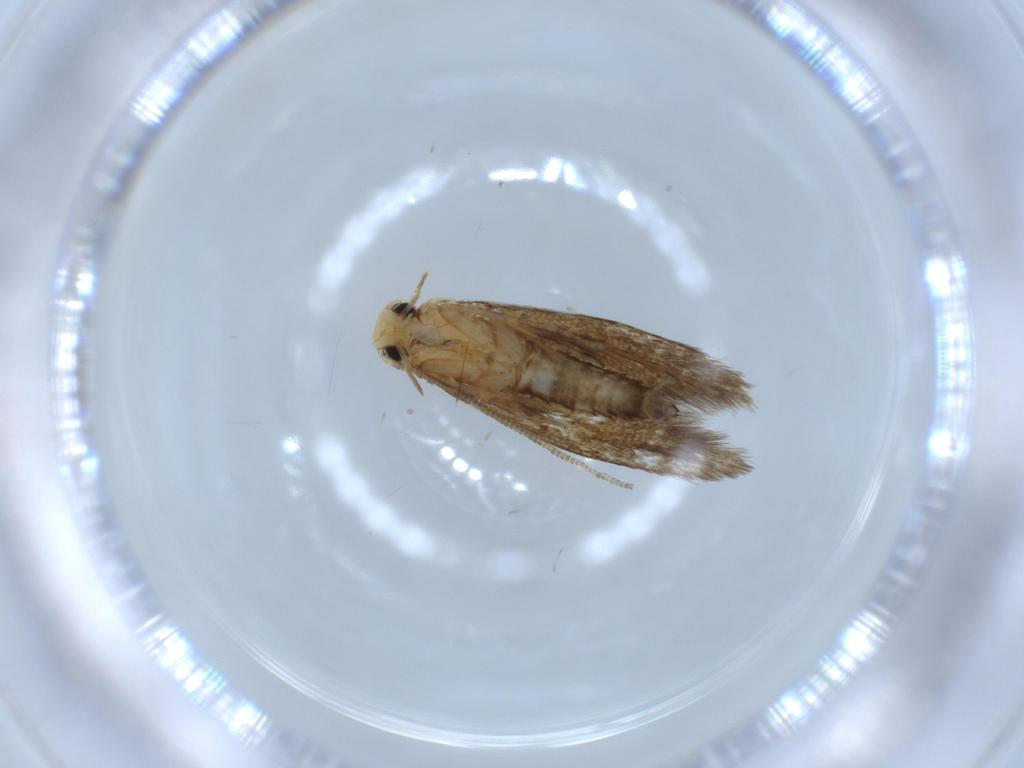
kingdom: Animalia
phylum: Arthropoda
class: Insecta
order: Lepidoptera
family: Tineidae
